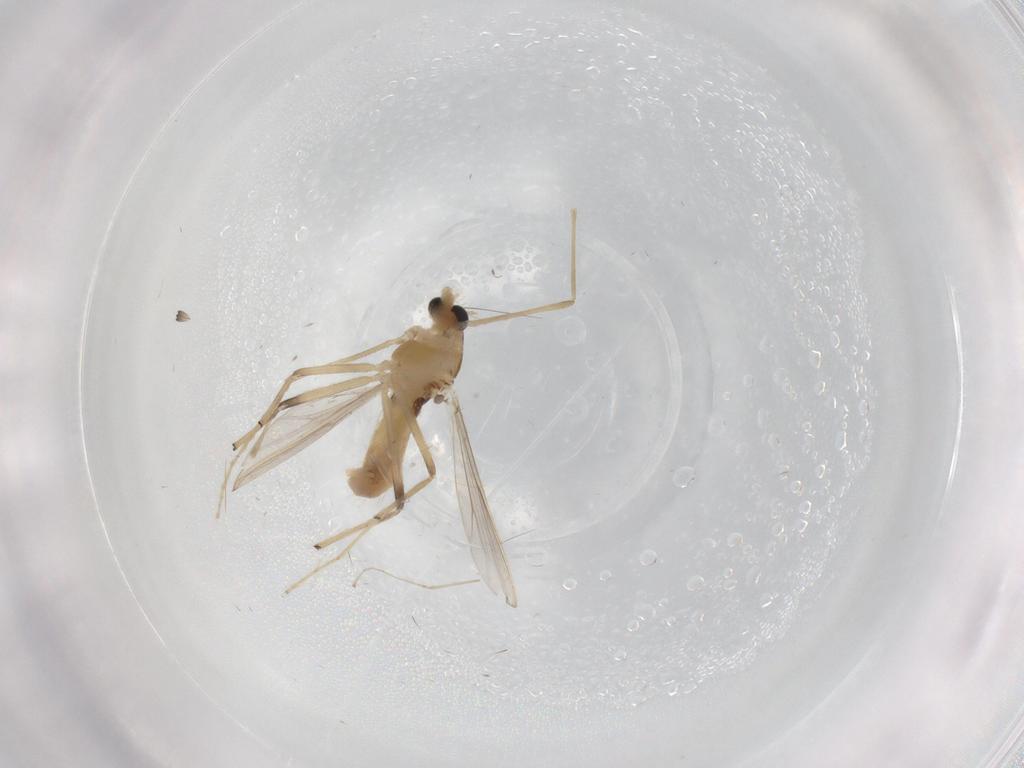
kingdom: Animalia
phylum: Arthropoda
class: Insecta
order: Diptera
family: Chironomidae
